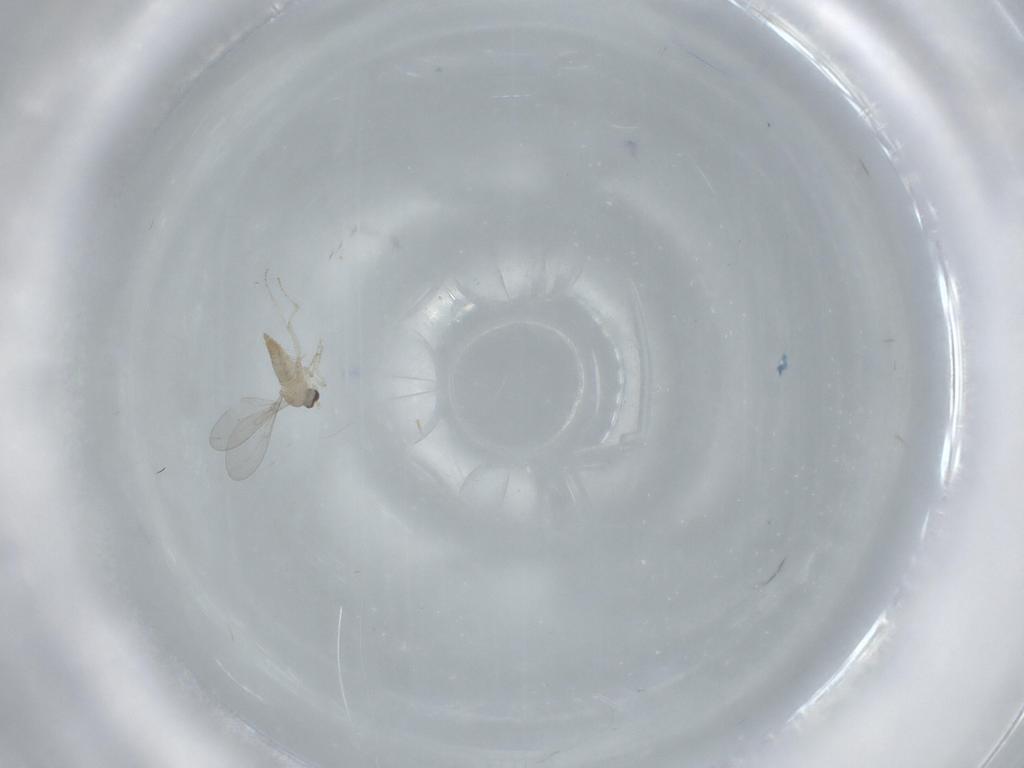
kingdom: Animalia
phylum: Arthropoda
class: Insecta
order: Diptera
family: Cecidomyiidae
